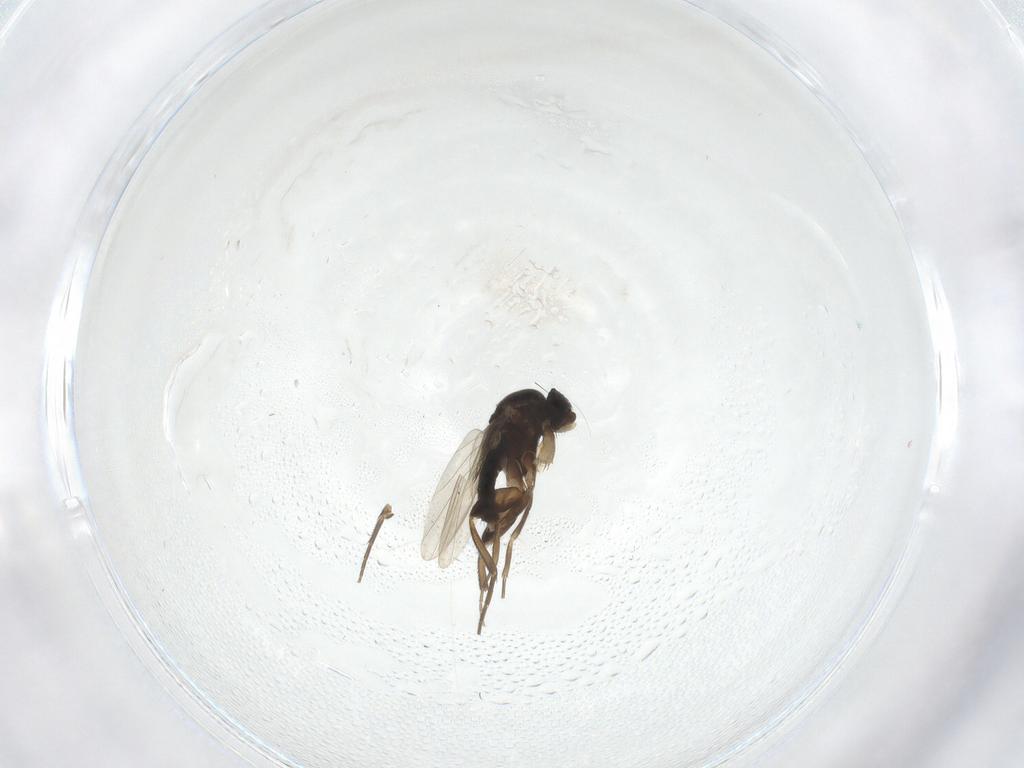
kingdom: Animalia
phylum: Arthropoda
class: Insecta
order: Diptera
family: Phoridae
